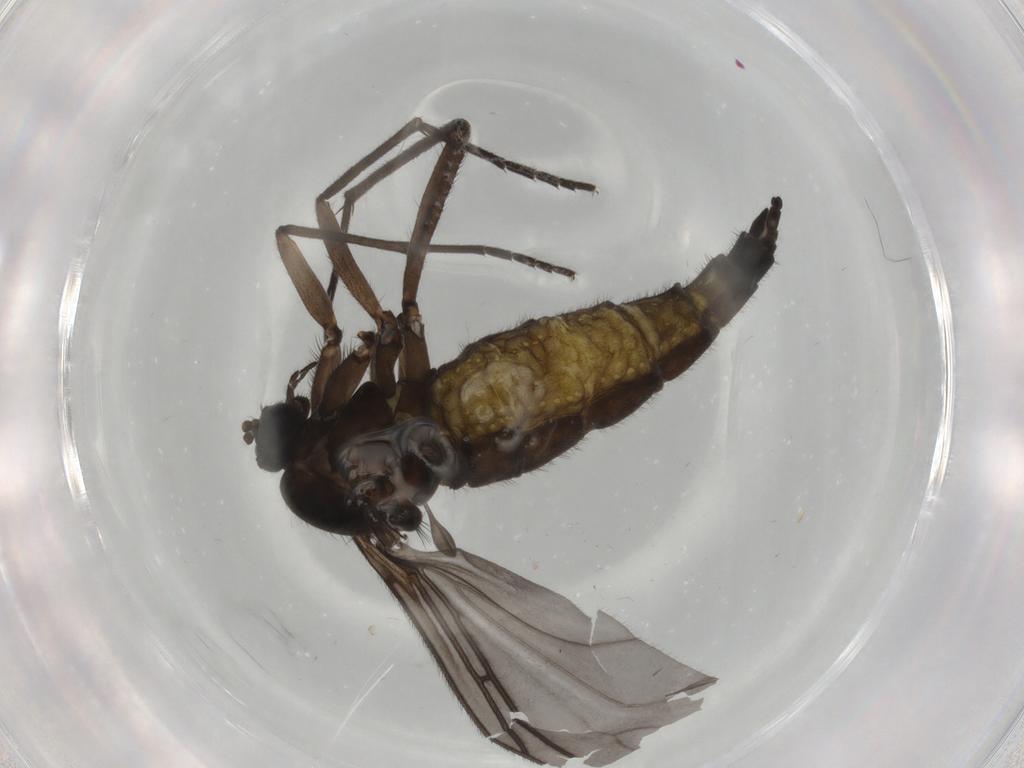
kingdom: Animalia
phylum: Arthropoda
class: Insecta
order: Diptera
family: Sciaridae
